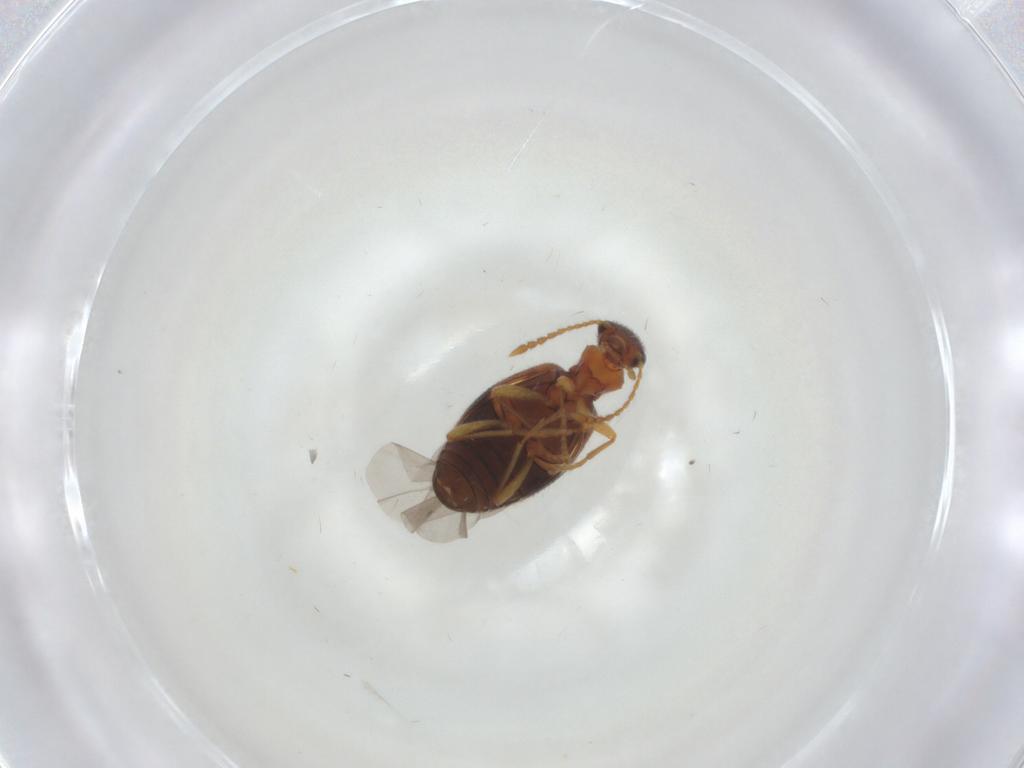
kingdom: Animalia
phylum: Arthropoda
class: Insecta
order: Coleoptera
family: Anthicidae
